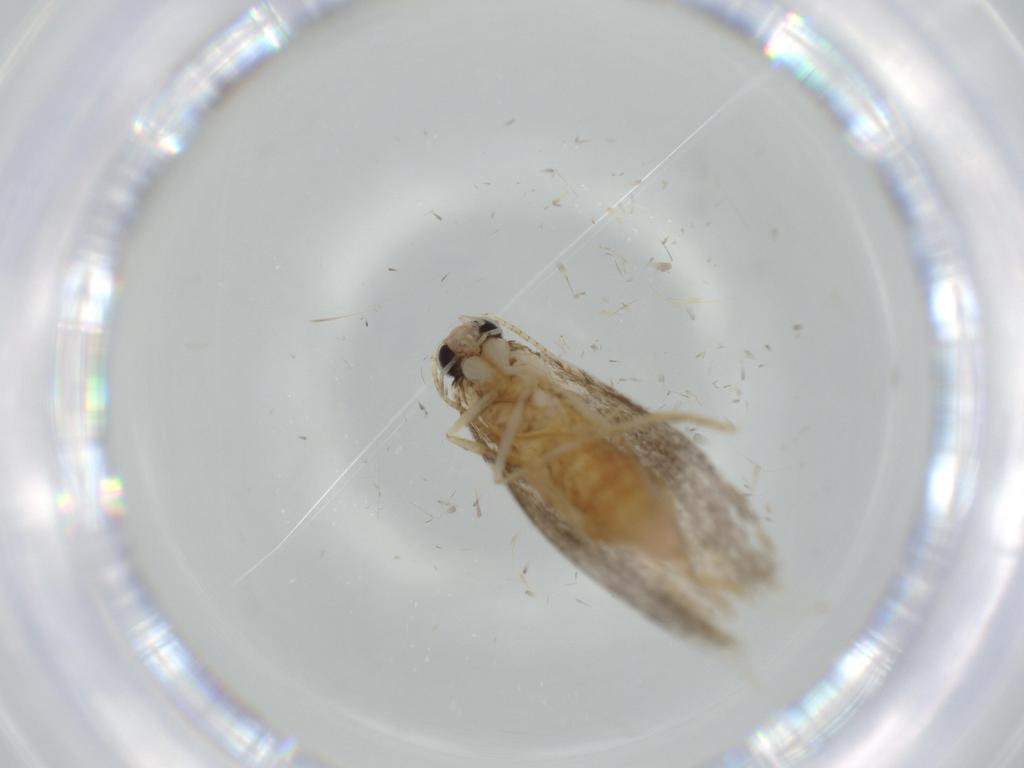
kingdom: Animalia
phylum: Arthropoda
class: Insecta
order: Lepidoptera
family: Tineidae
